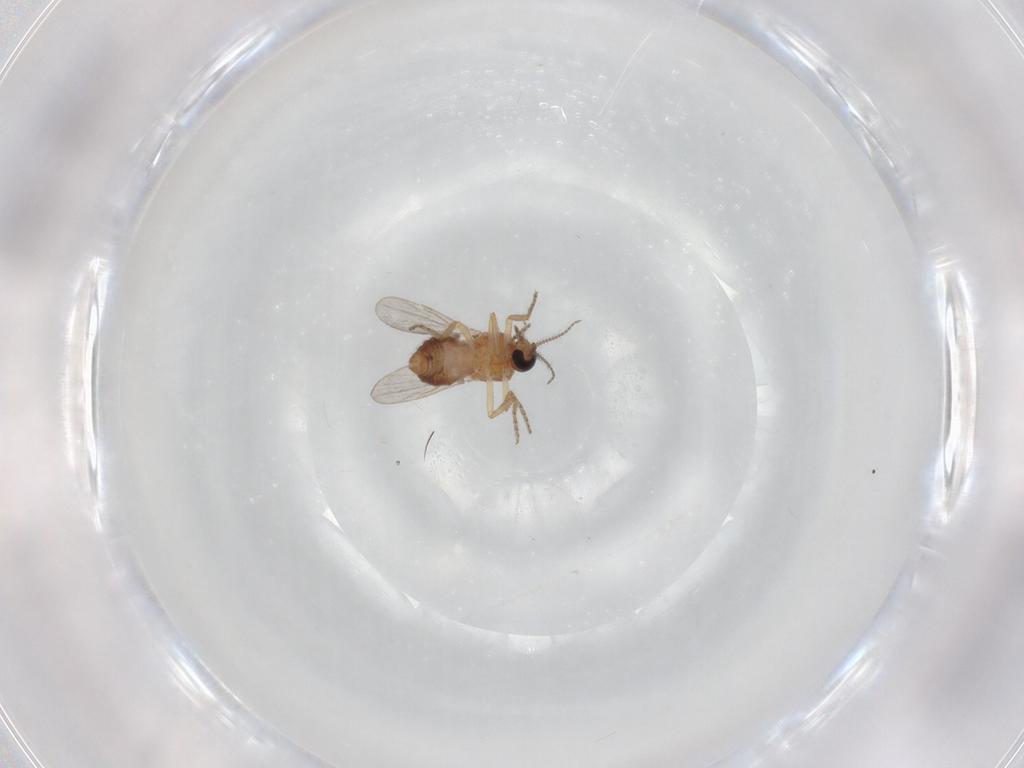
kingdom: Animalia
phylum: Arthropoda
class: Insecta
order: Diptera
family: Ceratopogonidae
